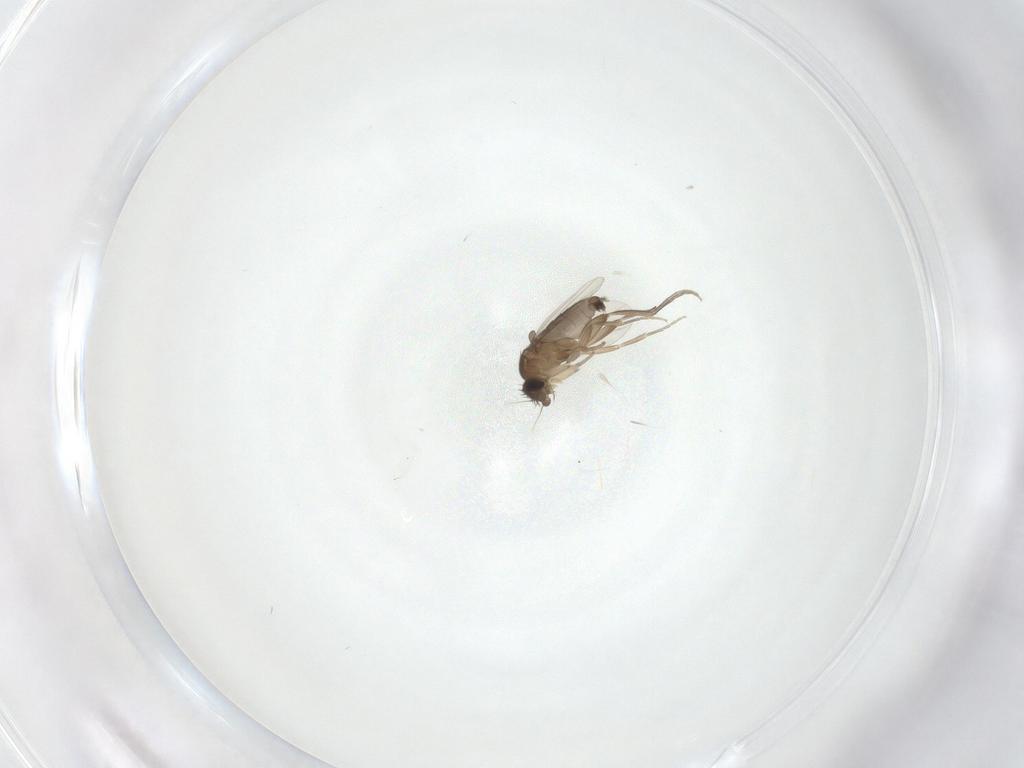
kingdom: Animalia
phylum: Arthropoda
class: Insecta
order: Diptera
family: Phoridae
